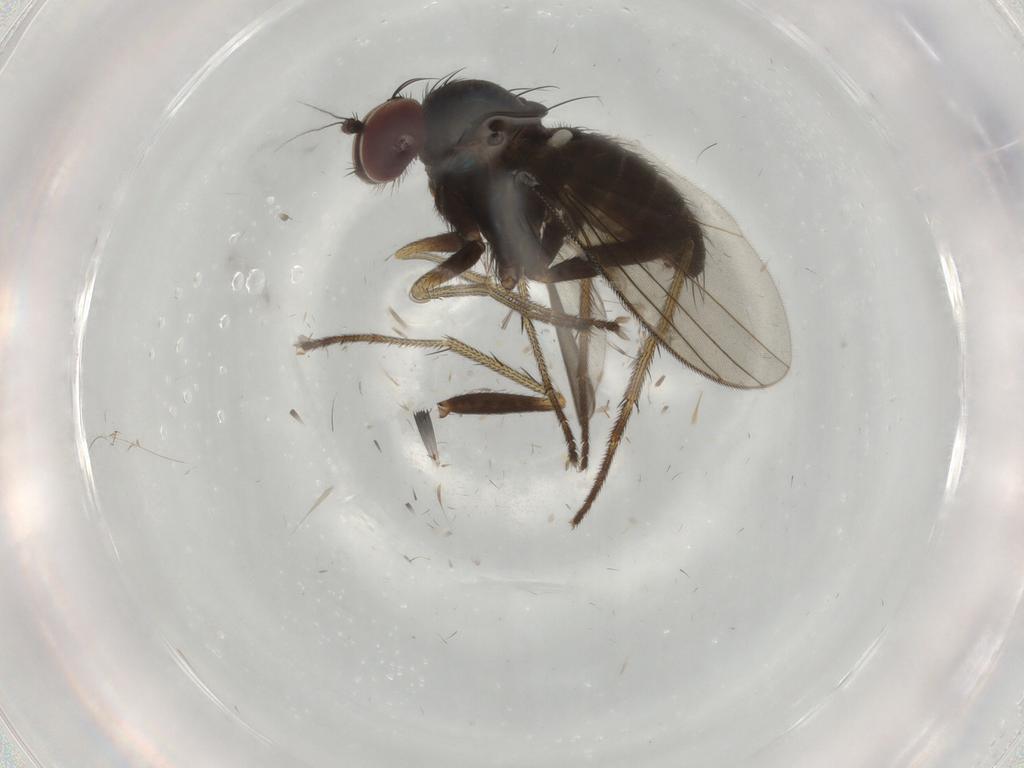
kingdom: Animalia
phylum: Arthropoda
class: Insecta
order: Diptera
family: Dolichopodidae
